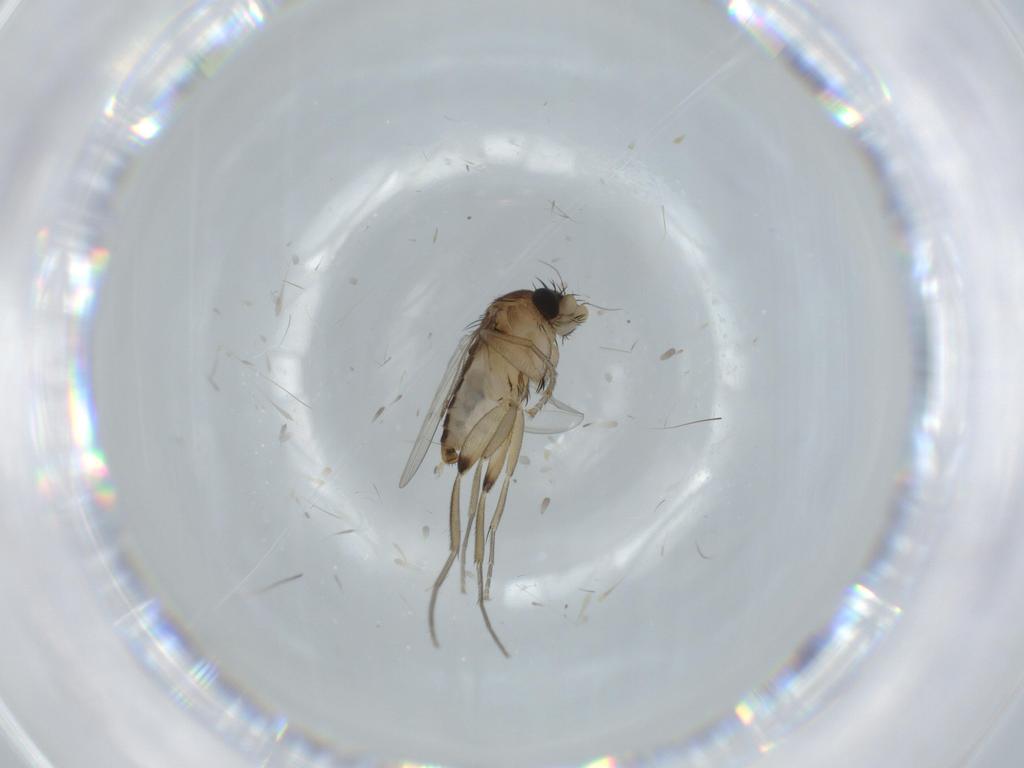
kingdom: Animalia
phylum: Arthropoda
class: Insecta
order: Diptera
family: Phoridae
